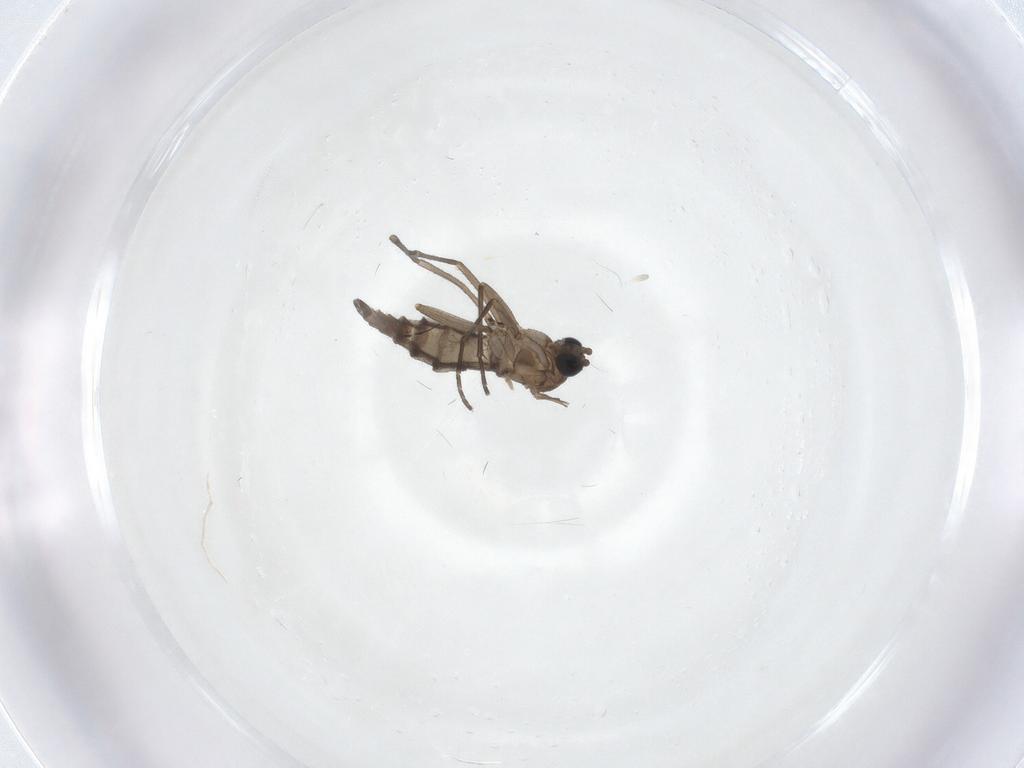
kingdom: Animalia
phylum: Arthropoda
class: Insecta
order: Diptera
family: Sciaridae
